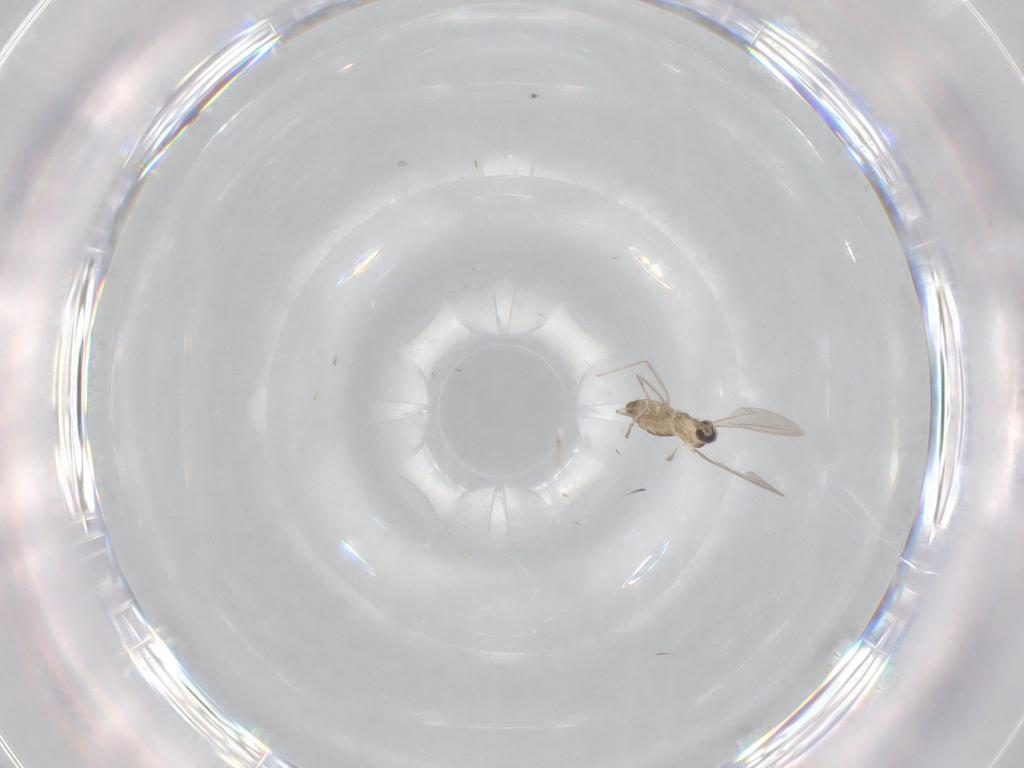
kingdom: Animalia
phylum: Arthropoda
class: Insecta
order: Diptera
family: Cecidomyiidae
